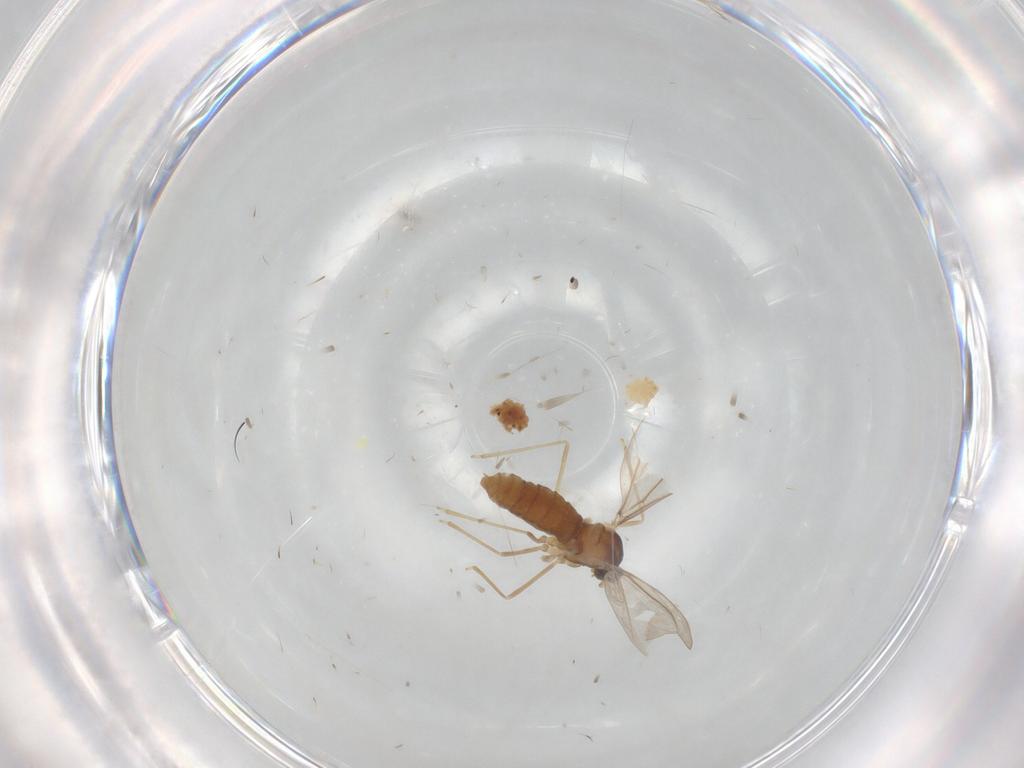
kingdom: Animalia
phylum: Arthropoda
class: Insecta
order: Diptera
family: Cecidomyiidae
